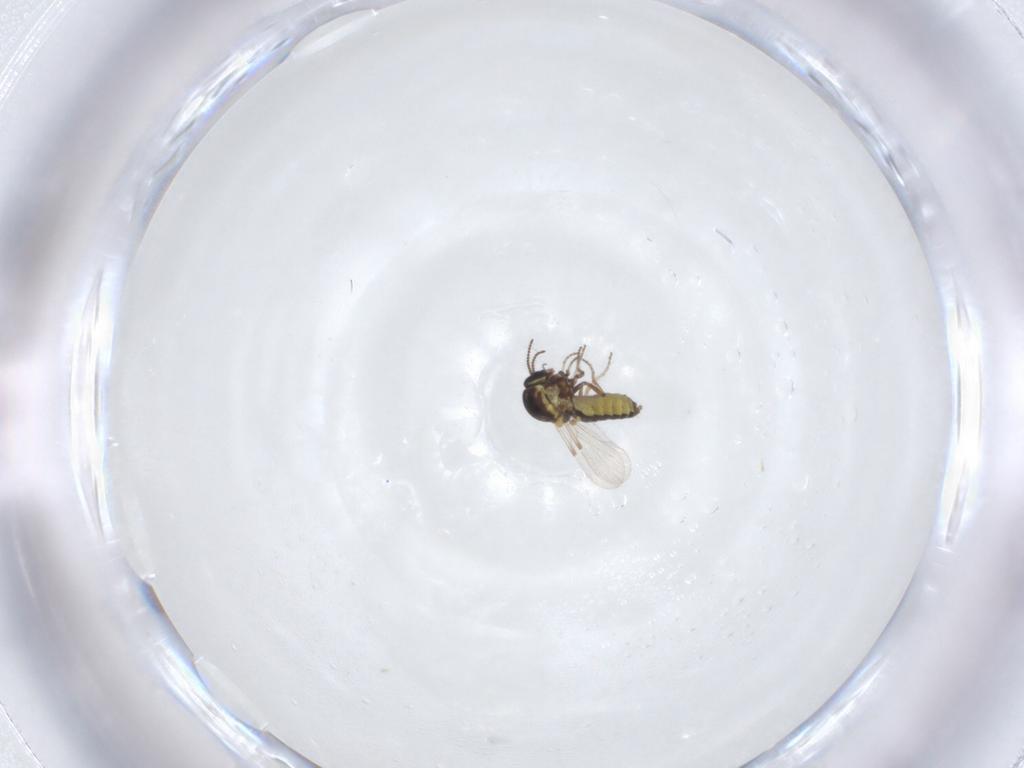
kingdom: Animalia
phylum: Arthropoda
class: Insecta
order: Diptera
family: Ceratopogonidae
